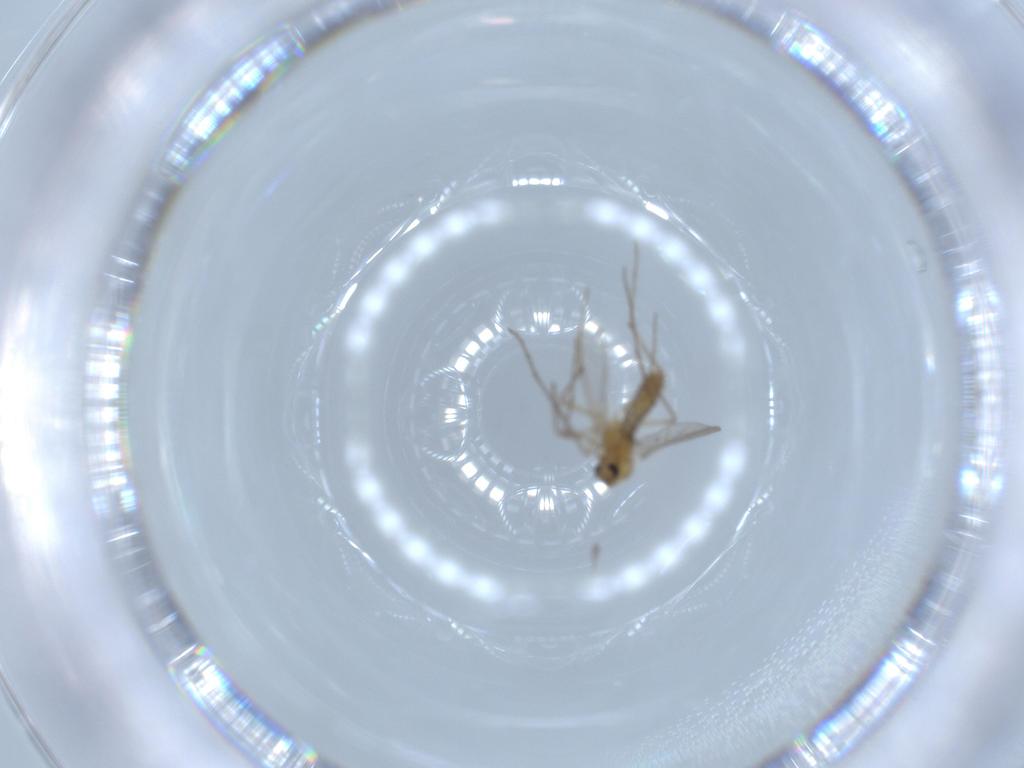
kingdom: Animalia
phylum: Arthropoda
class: Insecta
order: Diptera
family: Chironomidae
